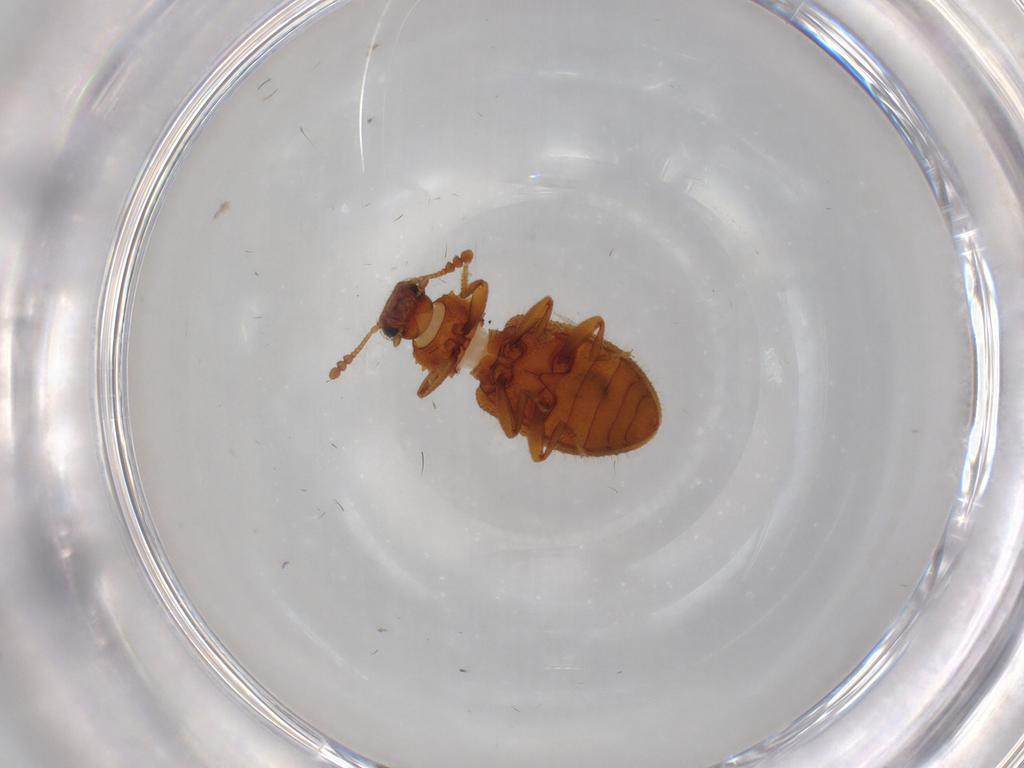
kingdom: Animalia
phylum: Arthropoda
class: Insecta
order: Coleoptera
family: Tenebrionidae
